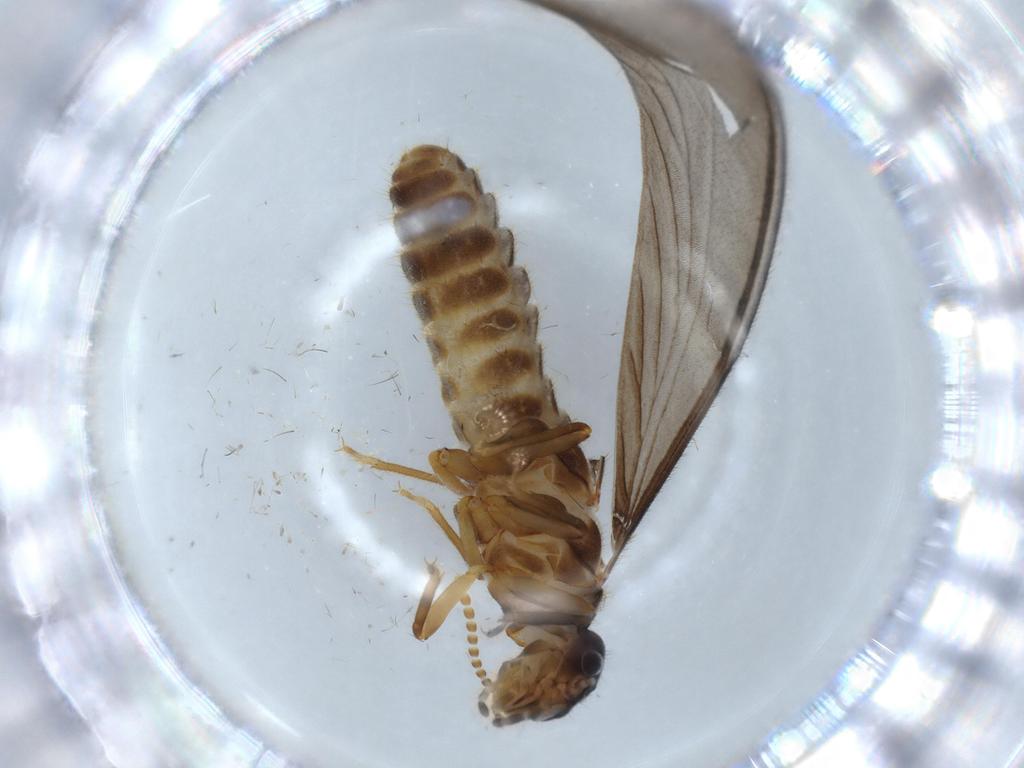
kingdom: Animalia
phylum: Arthropoda
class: Insecta
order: Blattodea
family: Termitidae
